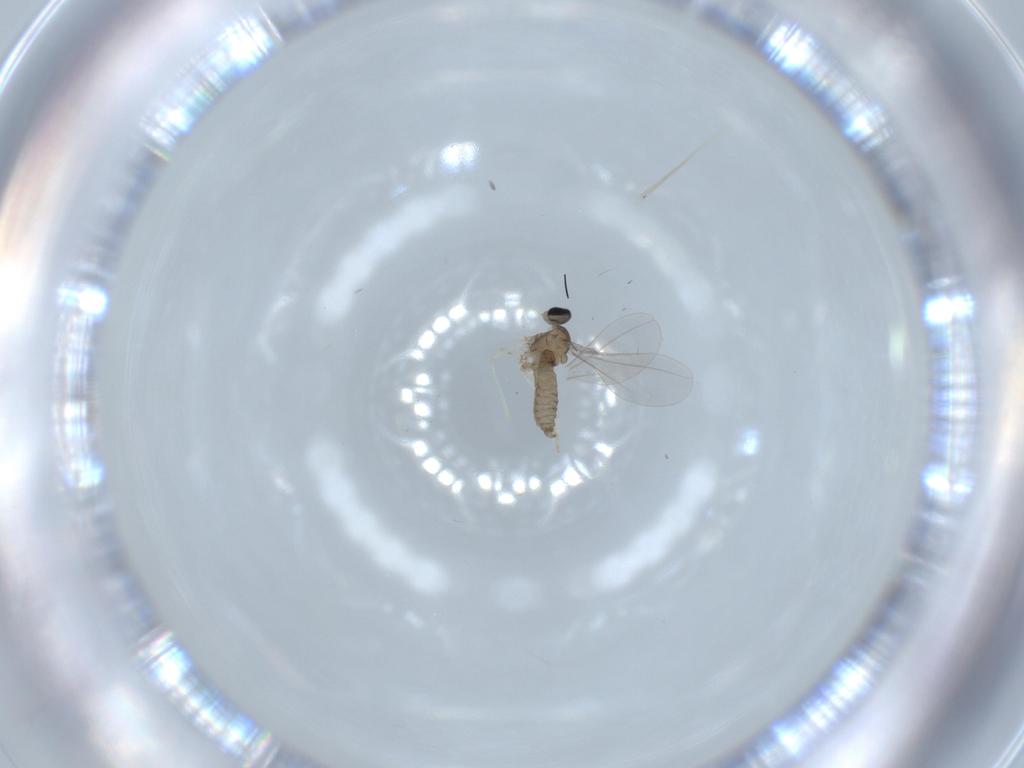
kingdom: Animalia
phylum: Arthropoda
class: Insecta
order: Diptera
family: Cecidomyiidae
